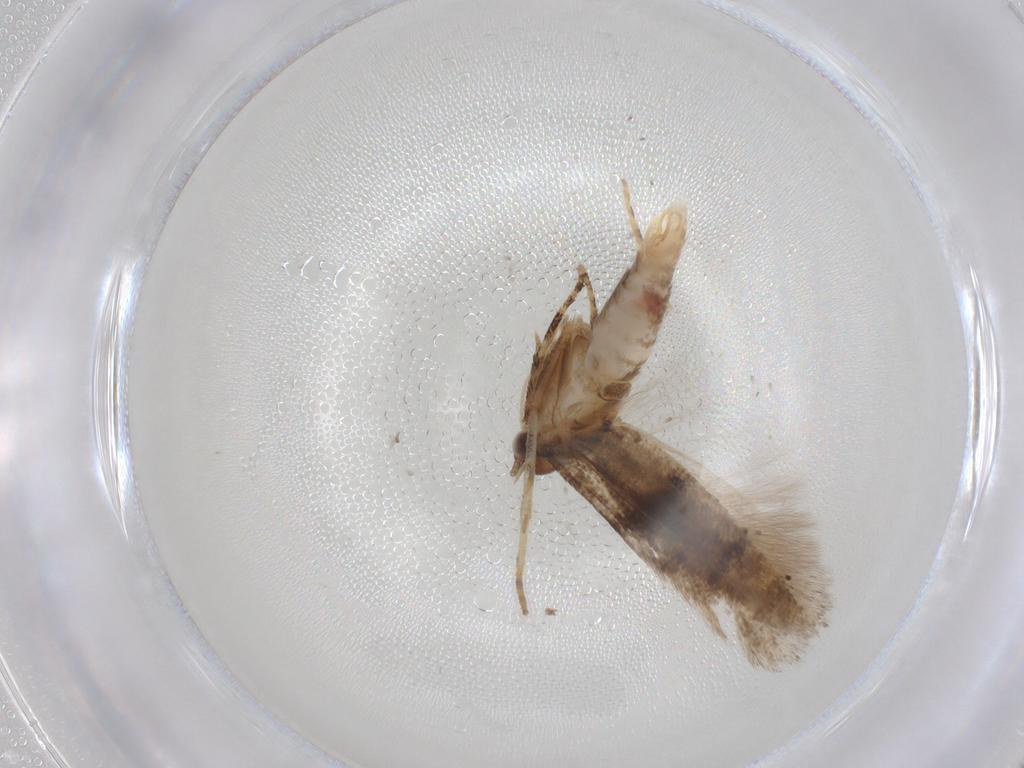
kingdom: Animalia
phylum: Arthropoda
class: Insecta
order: Lepidoptera
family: Gelechiidae
